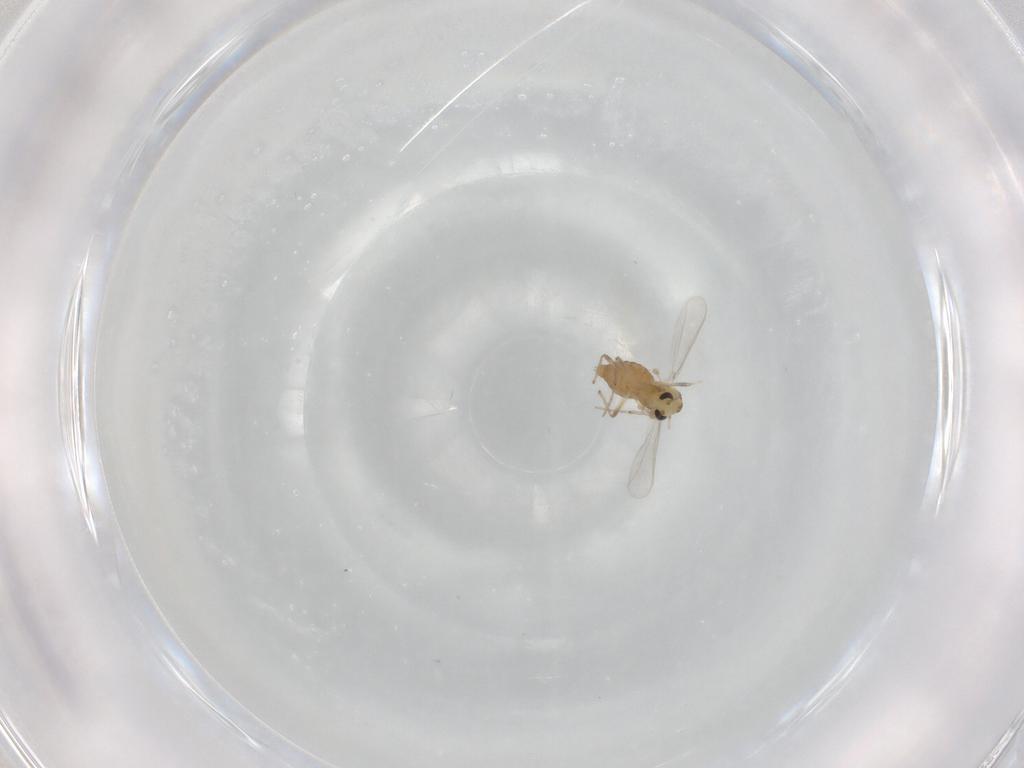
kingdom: Animalia
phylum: Arthropoda
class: Insecta
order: Diptera
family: Chironomidae
